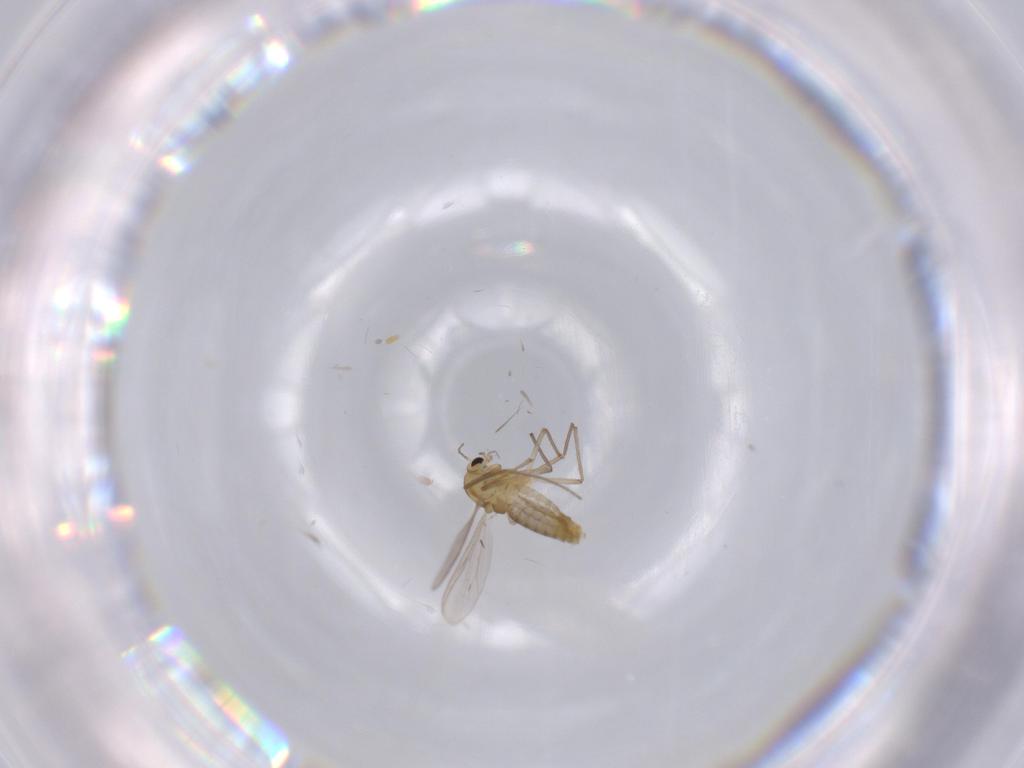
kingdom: Animalia
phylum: Arthropoda
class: Insecta
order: Diptera
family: Chironomidae
